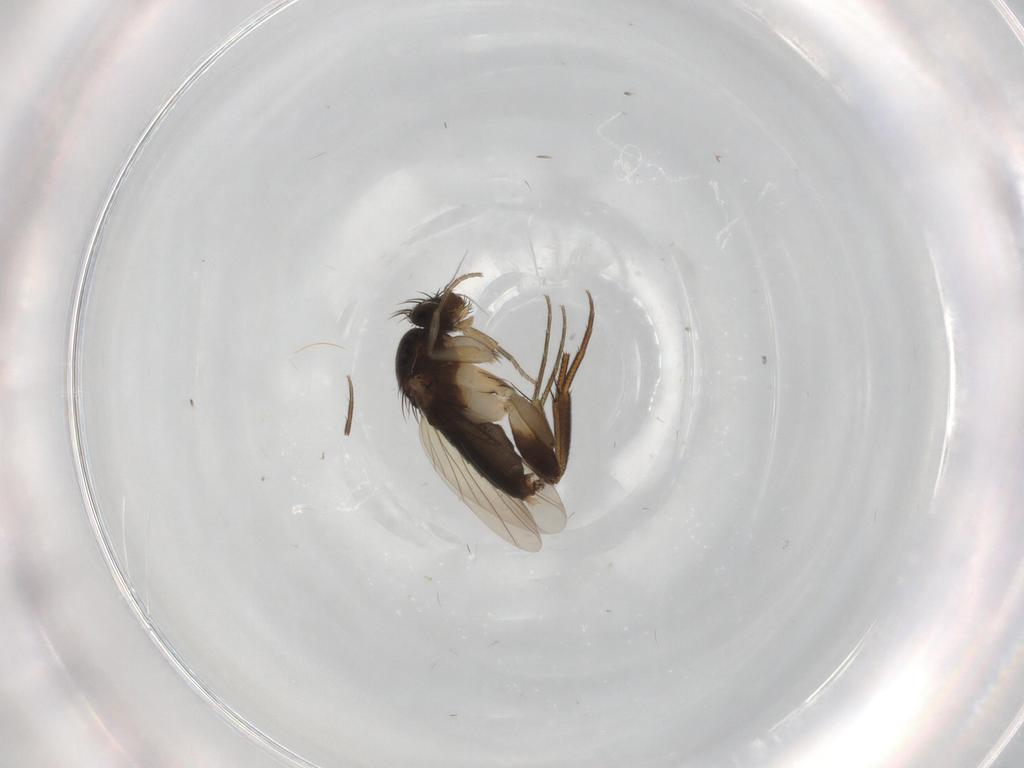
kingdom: Animalia
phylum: Arthropoda
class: Insecta
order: Diptera
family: Phoridae
